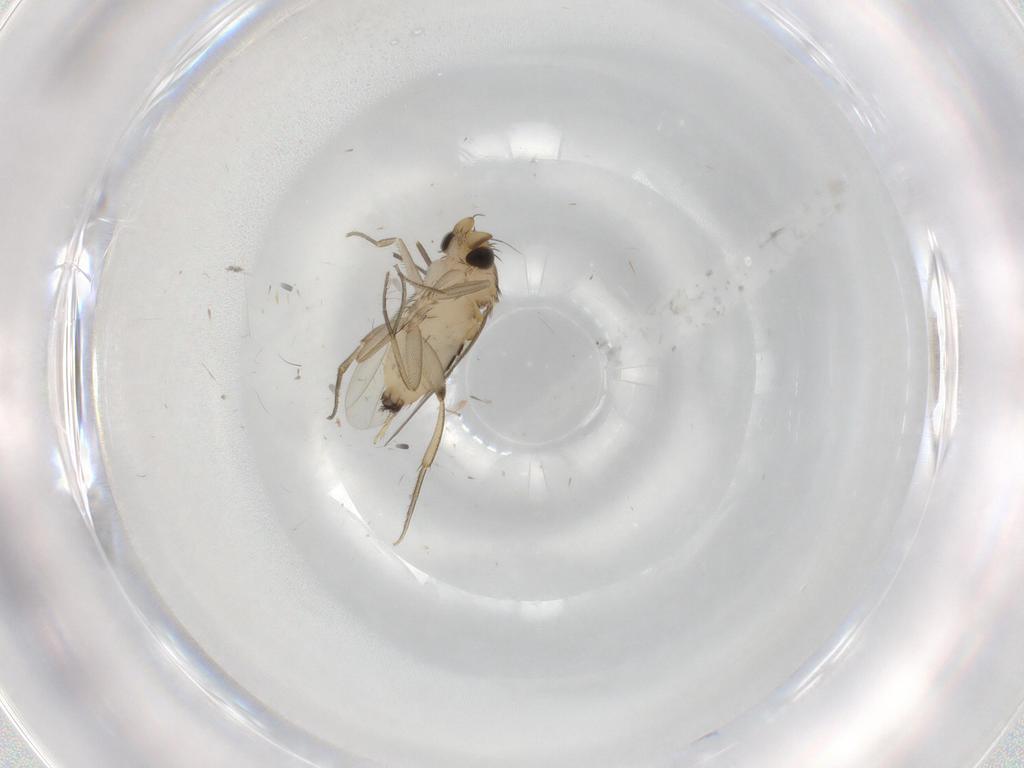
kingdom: Animalia
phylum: Arthropoda
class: Insecta
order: Diptera
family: Phoridae
